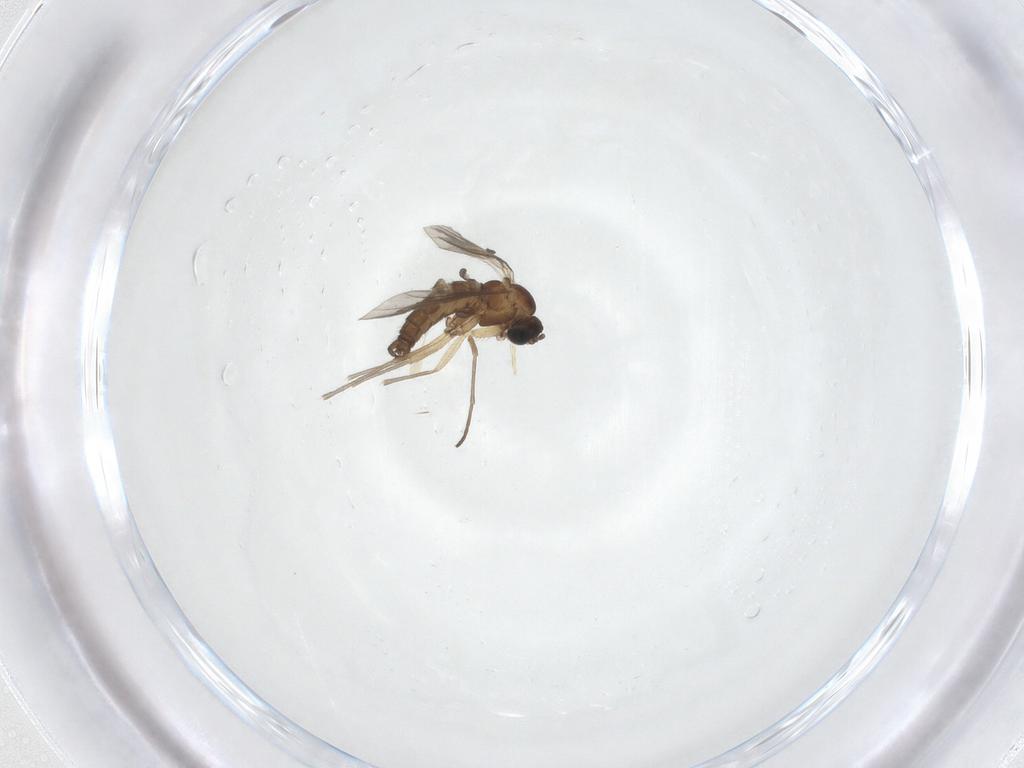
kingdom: Animalia
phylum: Arthropoda
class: Insecta
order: Diptera
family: Sciaridae
